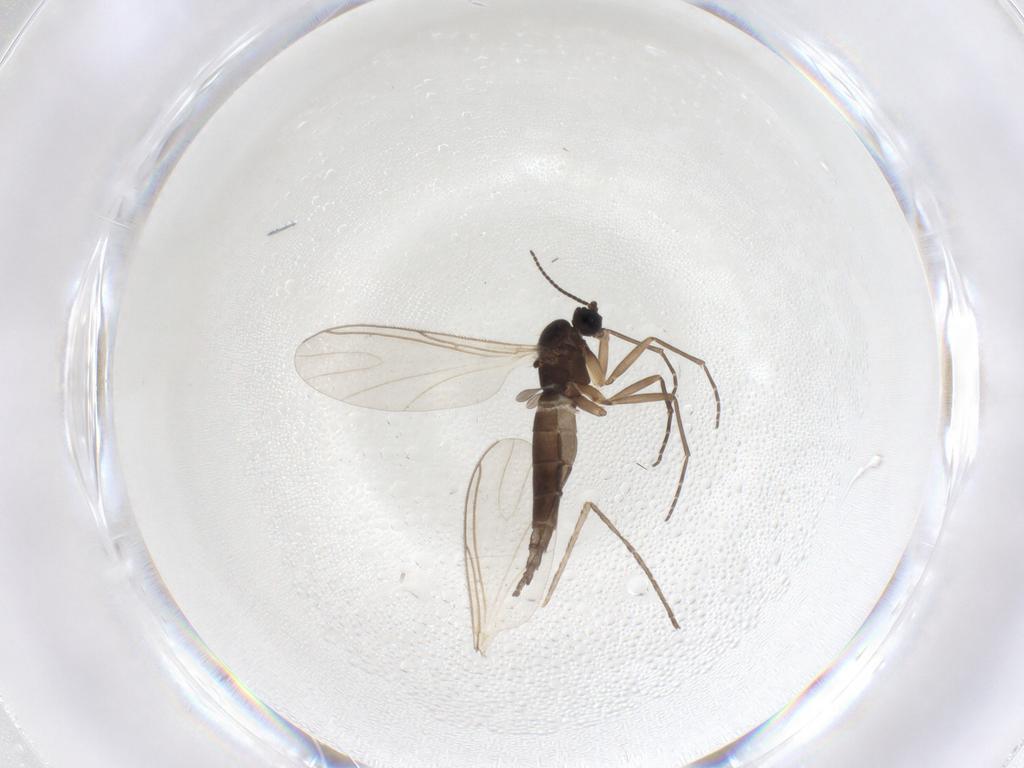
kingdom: Animalia
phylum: Arthropoda
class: Insecta
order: Diptera
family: Sciaridae
